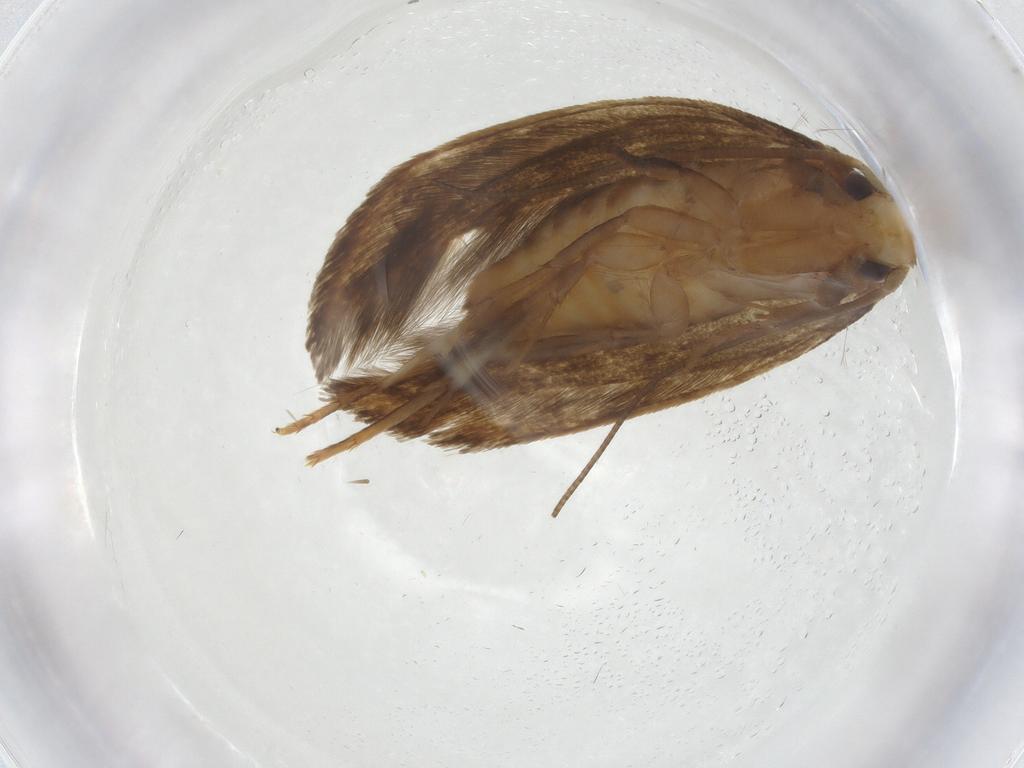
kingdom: Animalia
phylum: Arthropoda
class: Insecta
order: Lepidoptera
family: Tineidae
